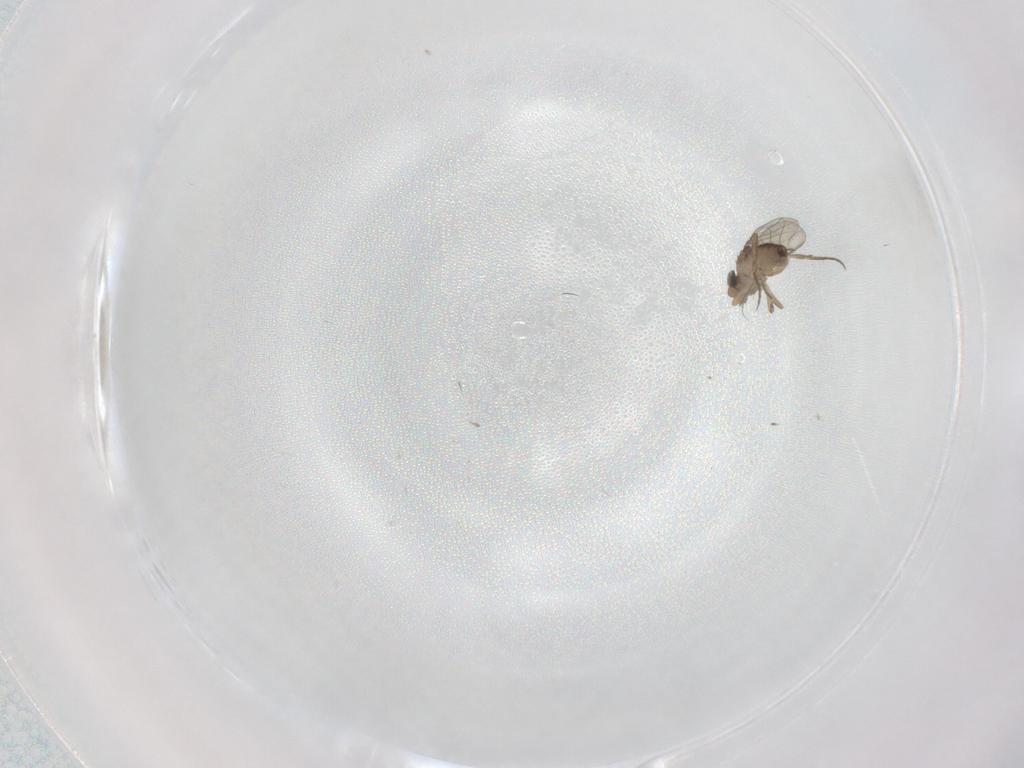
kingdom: Animalia
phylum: Arthropoda
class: Insecta
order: Diptera
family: Phoridae
